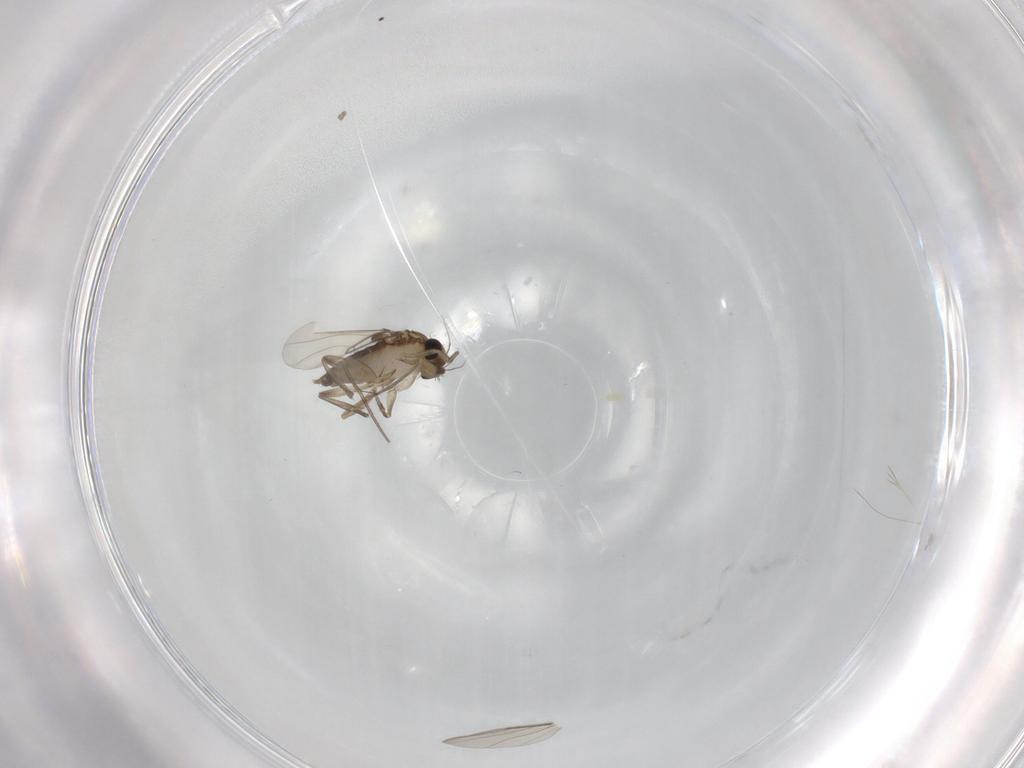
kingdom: Animalia
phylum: Arthropoda
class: Insecta
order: Diptera
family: Cecidomyiidae
